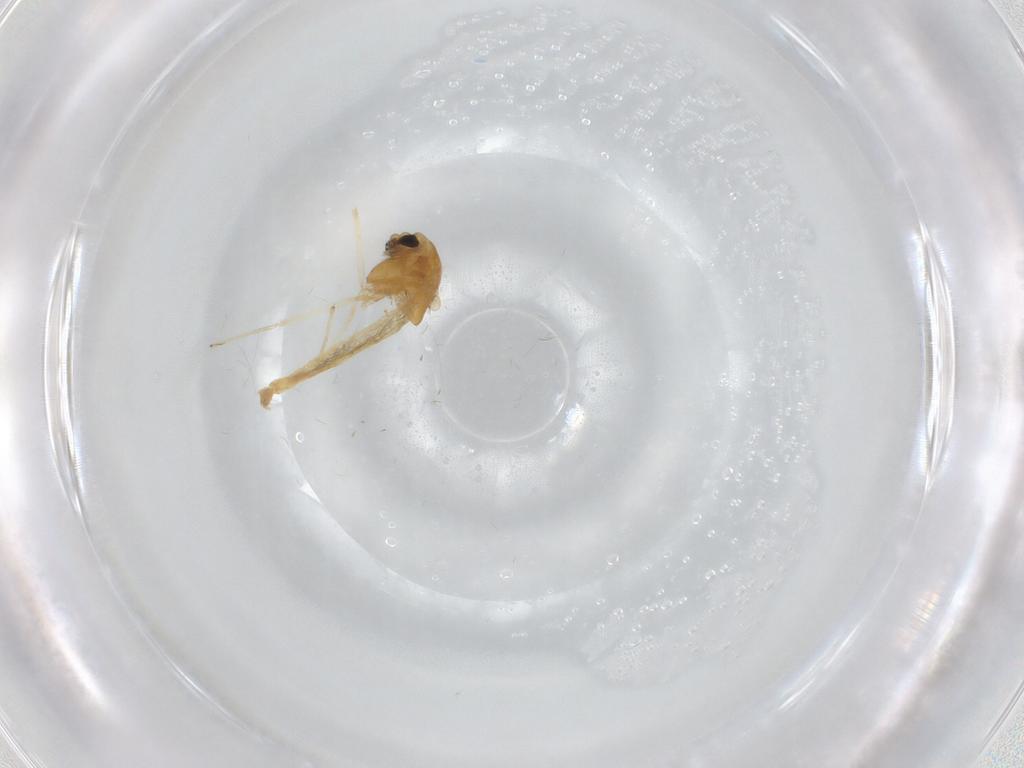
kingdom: Animalia
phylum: Arthropoda
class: Insecta
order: Diptera
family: Chironomidae
